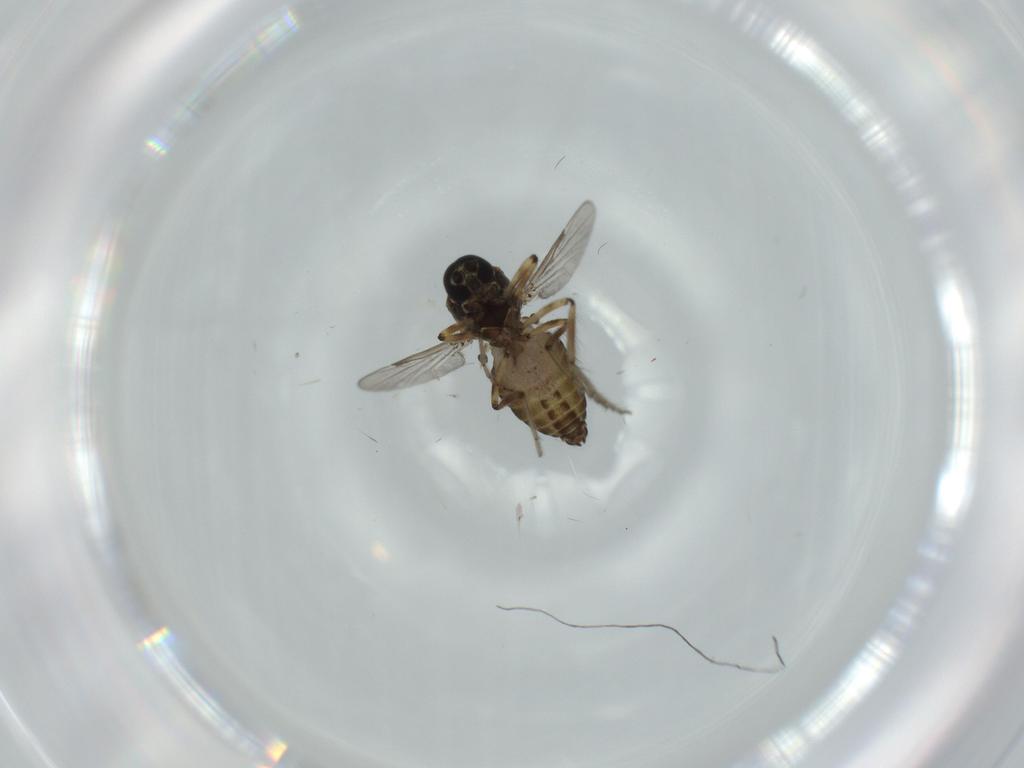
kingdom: Animalia
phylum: Arthropoda
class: Insecta
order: Diptera
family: Ceratopogonidae
